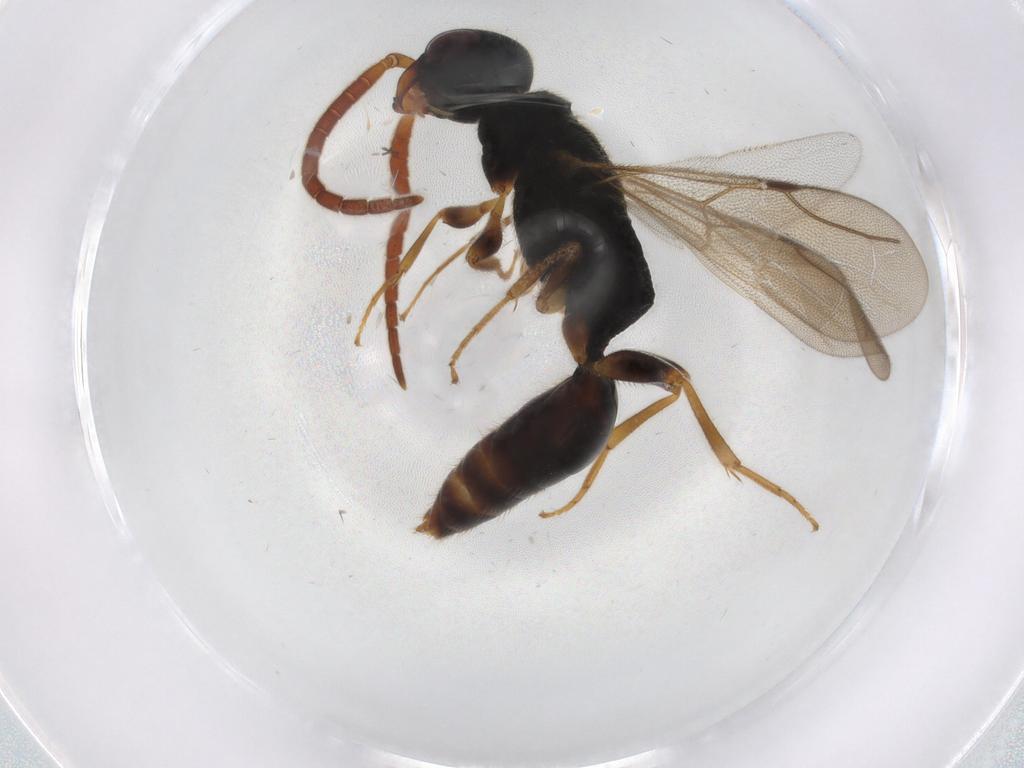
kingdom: Animalia
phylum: Arthropoda
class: Insecta
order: Hymenoptera
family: Bethylidae
